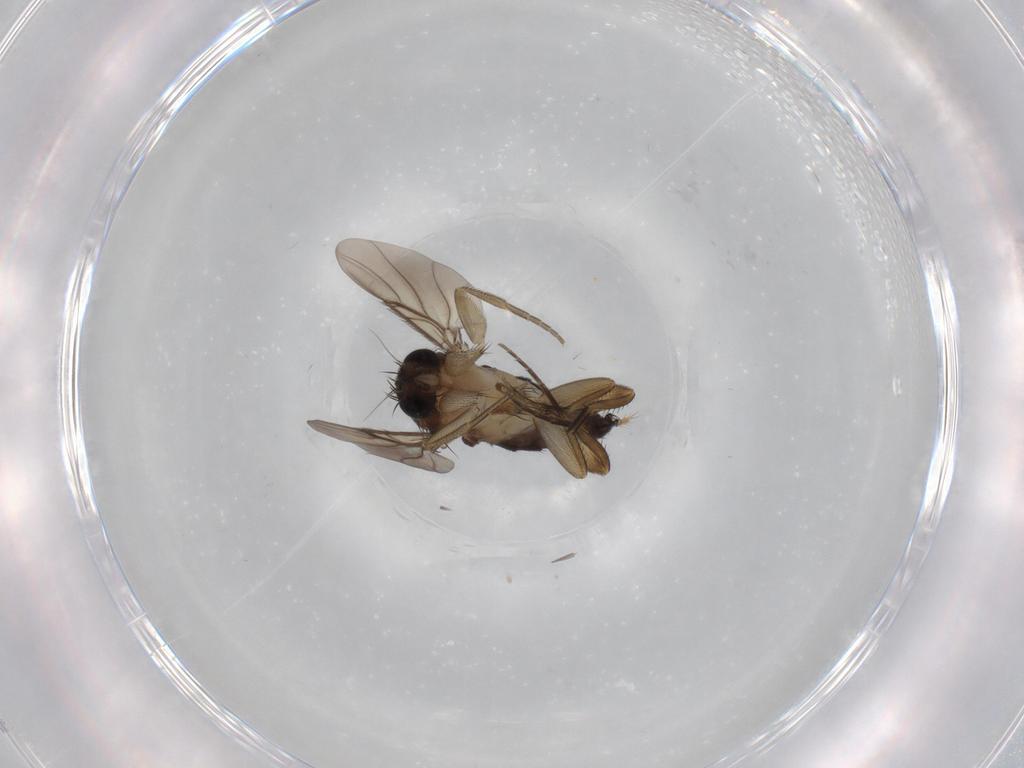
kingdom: Animalia
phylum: Arthropoda
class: Insecta
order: Diptera
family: Phoridae
